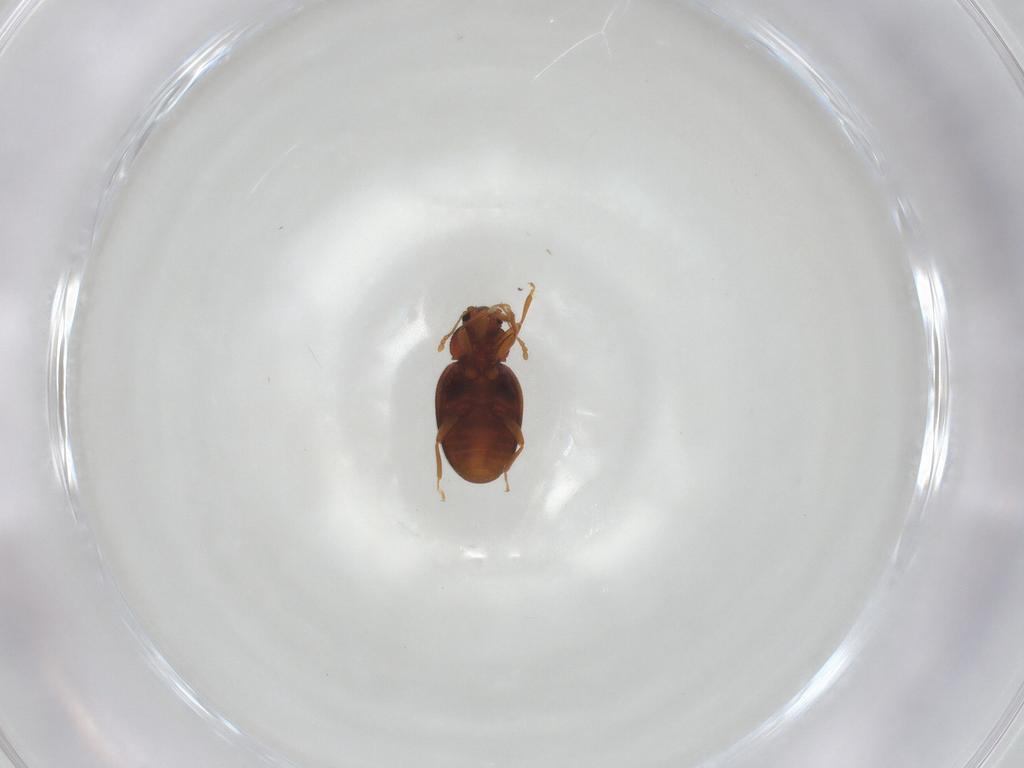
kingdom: Animalia
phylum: Arthropoda
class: Insecta
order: Coleoptera
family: Latridiidae
